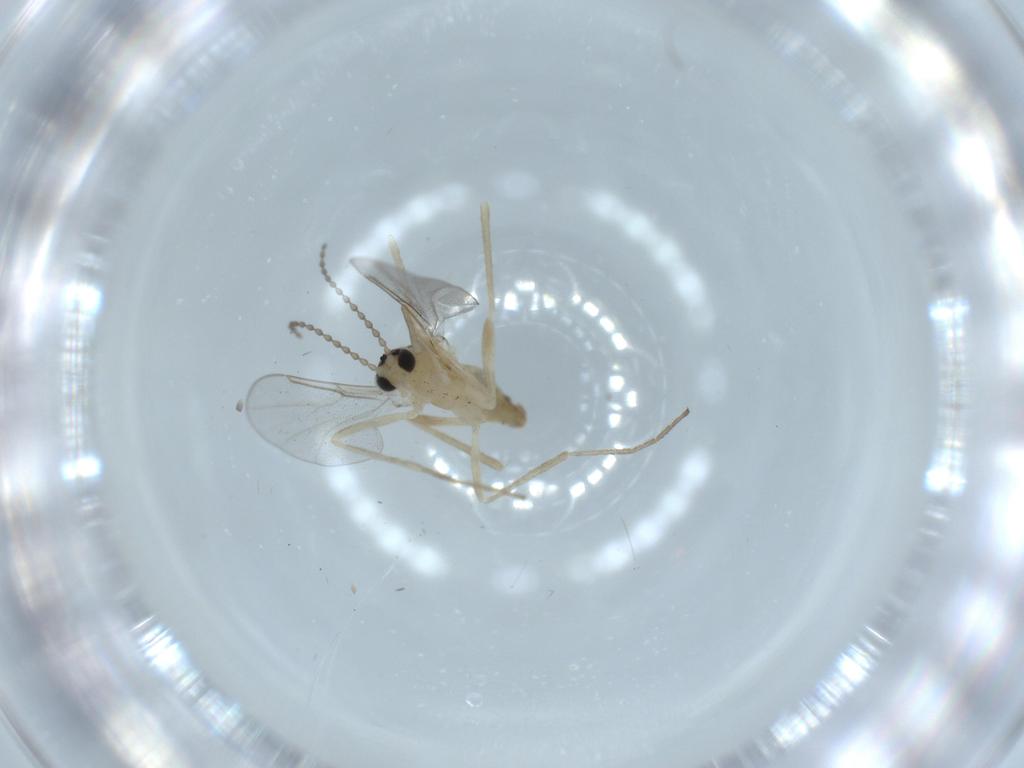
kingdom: Animalia
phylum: Arthropoda
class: Insecta
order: Diptera
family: Cecidomyiidae
